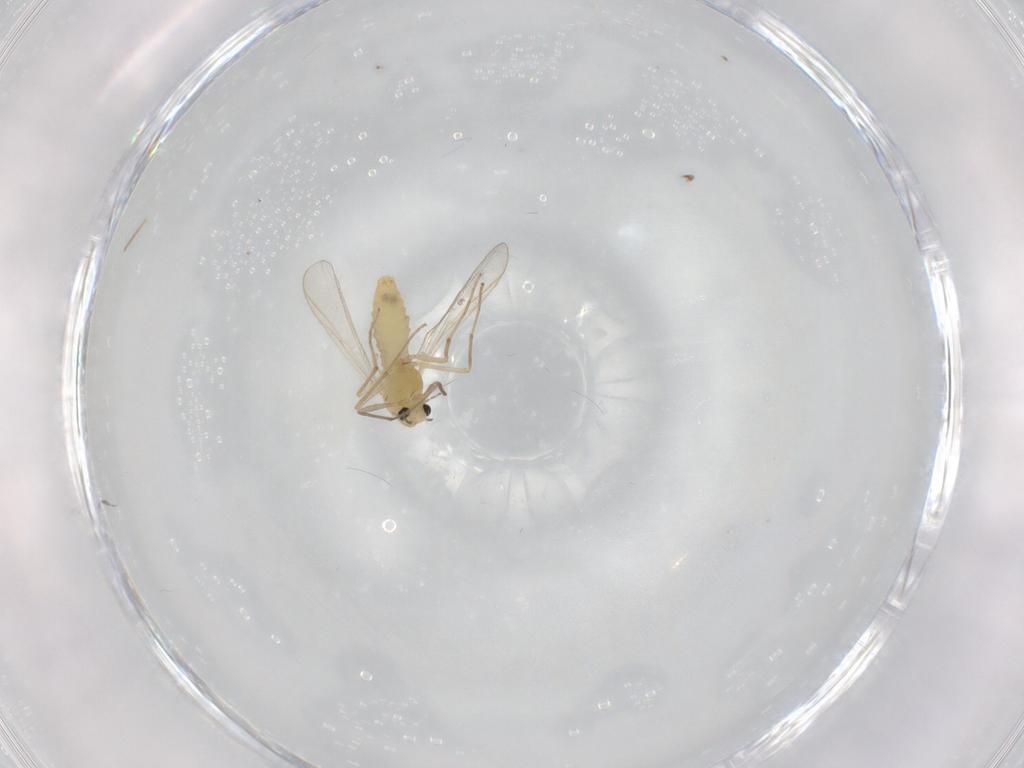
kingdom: Animalia
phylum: Arthropoda
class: Insecta
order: Diptera
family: Chironomidae
